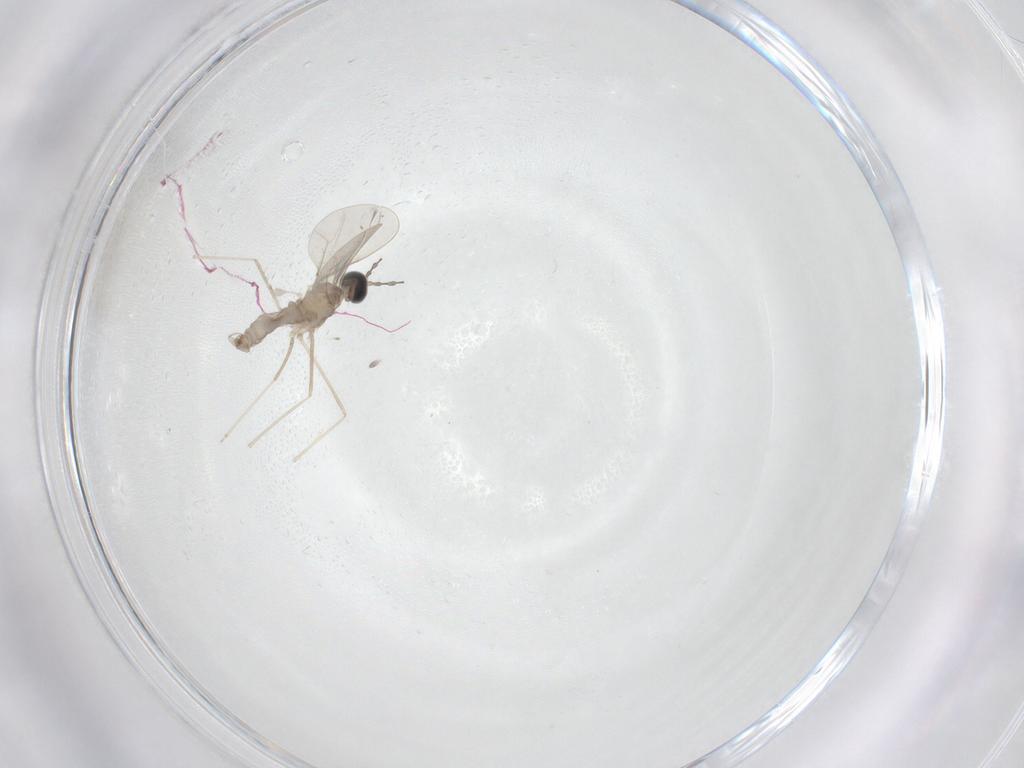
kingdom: Animalia
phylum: Arthropoda
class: Insecta
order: Diptera
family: Cecidomyiidae
